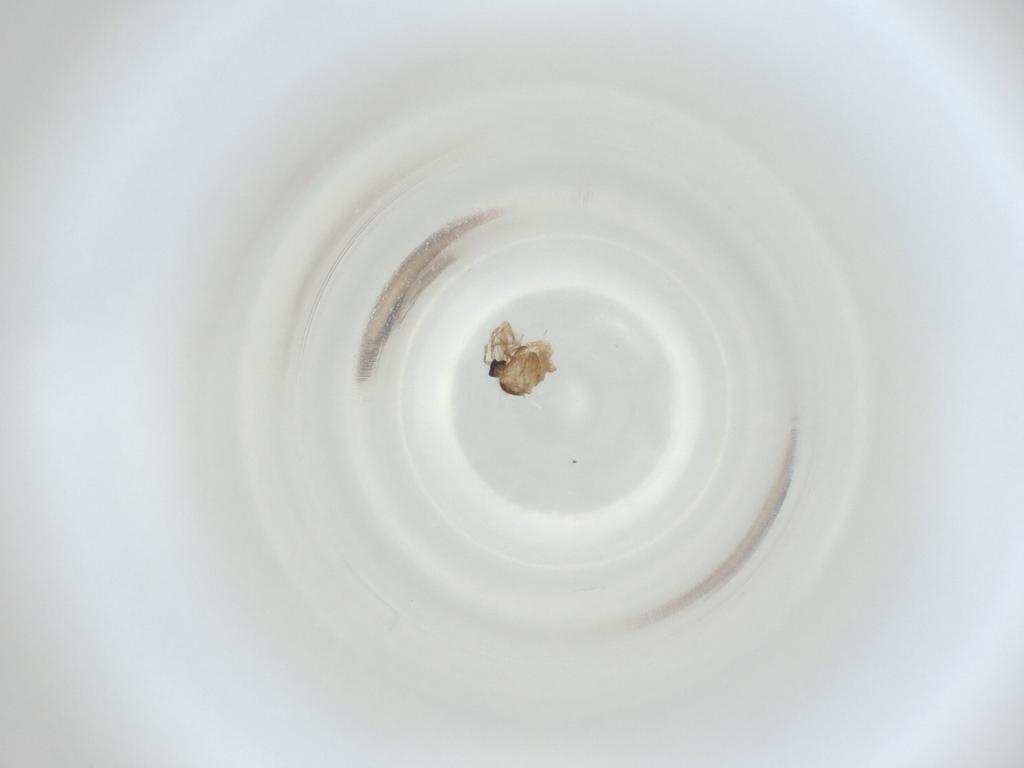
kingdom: Animalia
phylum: Arthropoda
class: Insecta
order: Diptera
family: Cecidomyiidae
